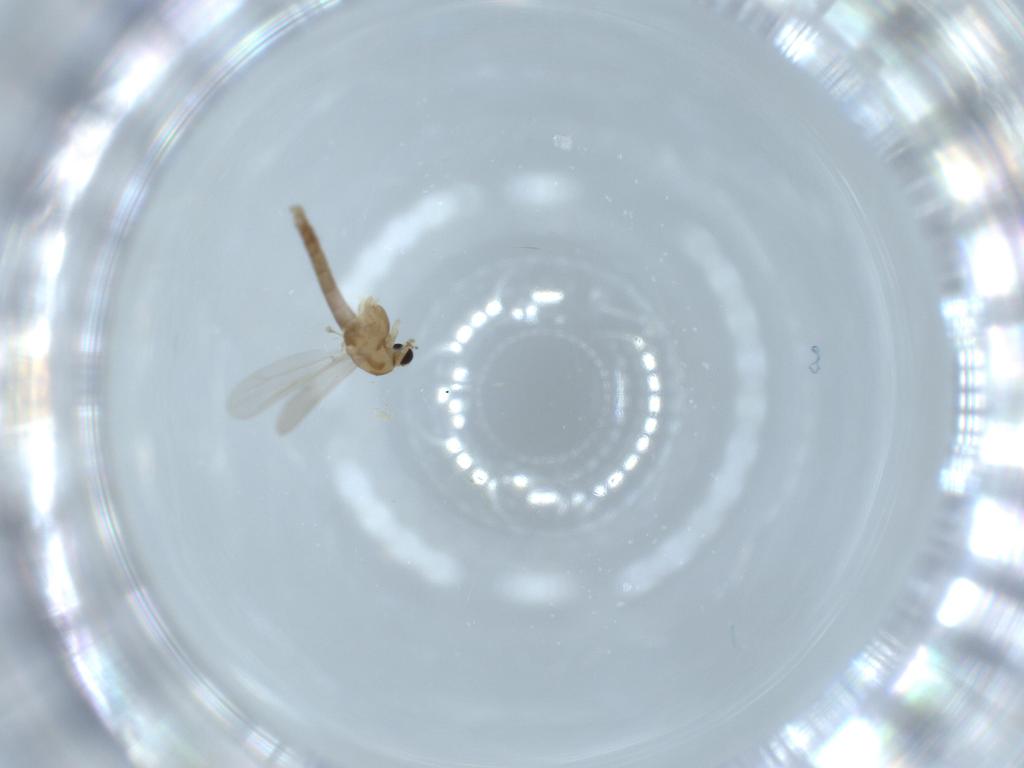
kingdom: Animalia
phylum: Arthropoda
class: Insecta
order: Diptera
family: Chironomidae
